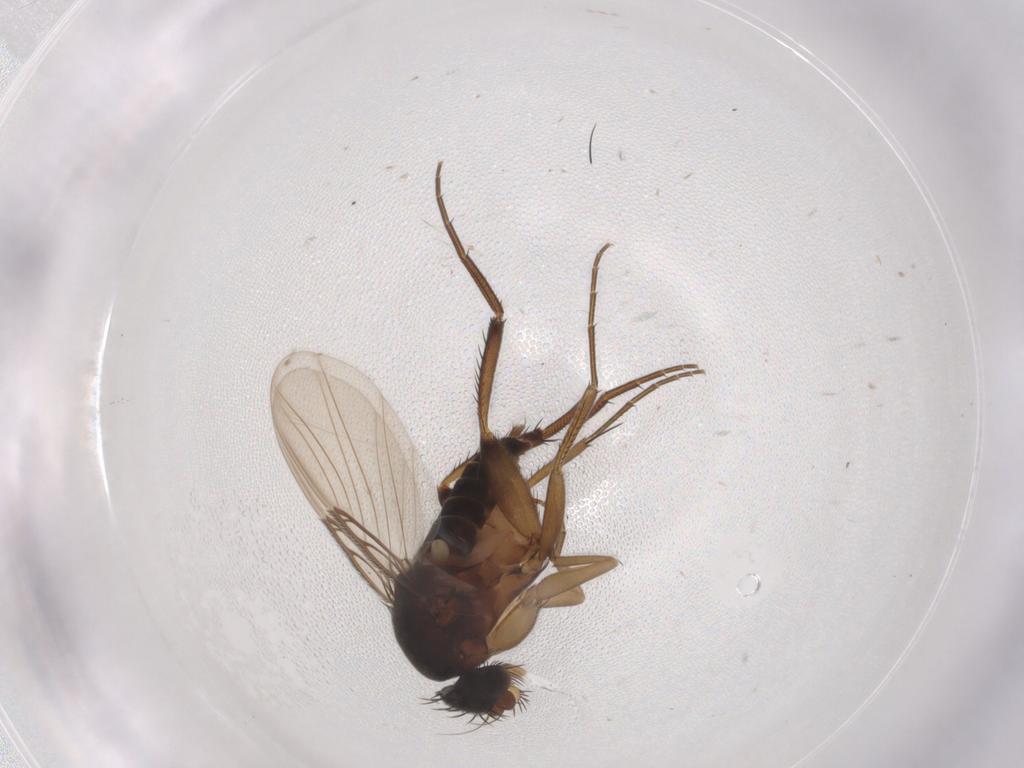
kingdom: Animalia
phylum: Arthropoda
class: Insecta
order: Diptera
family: Phoridae
